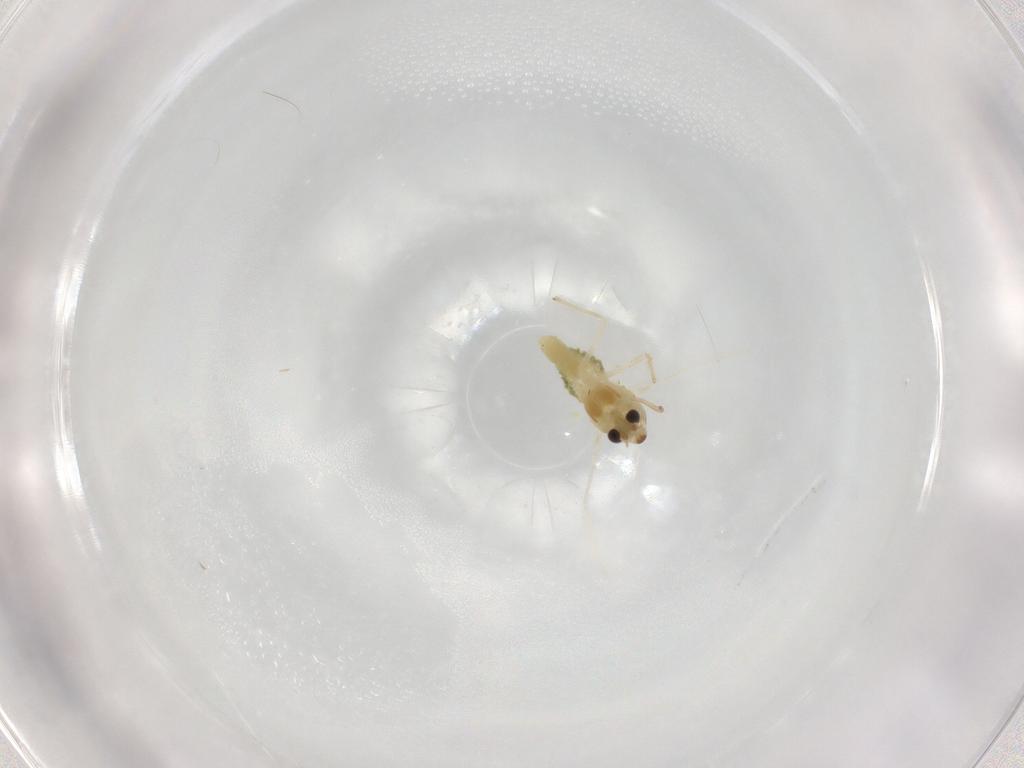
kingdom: Animalia
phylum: Arthropoda
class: Insecta
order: Diptera
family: Chironomidae
